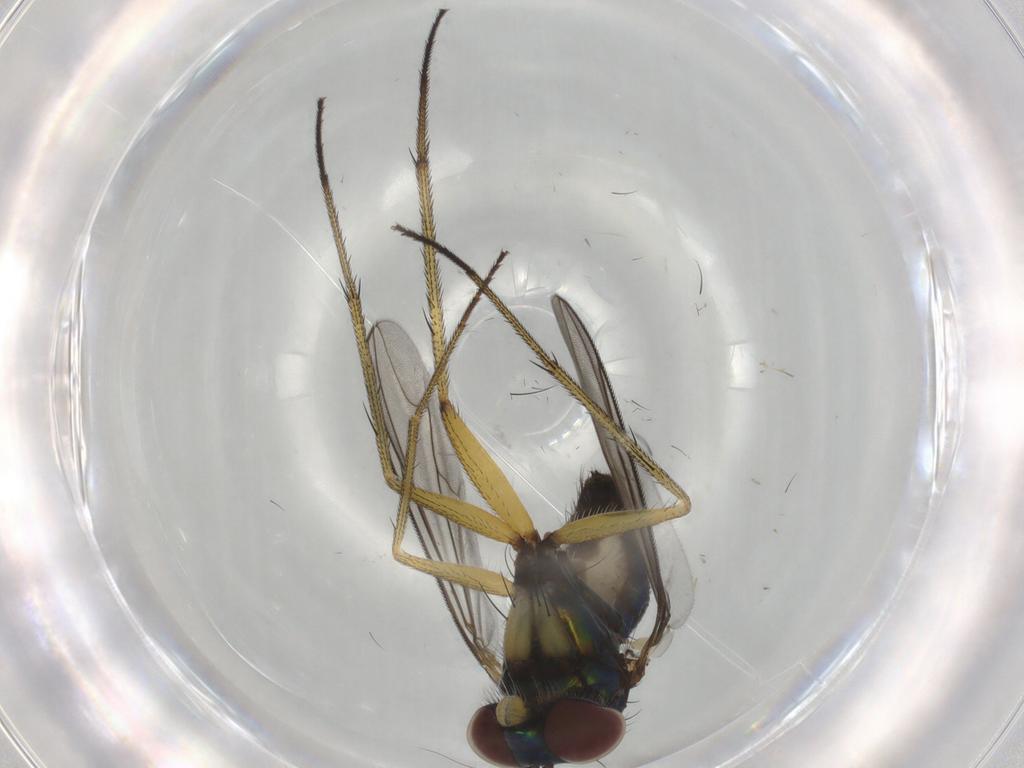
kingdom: Animalia
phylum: Arthropoda
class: Insecta
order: Diptera
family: Dolichopodidae
